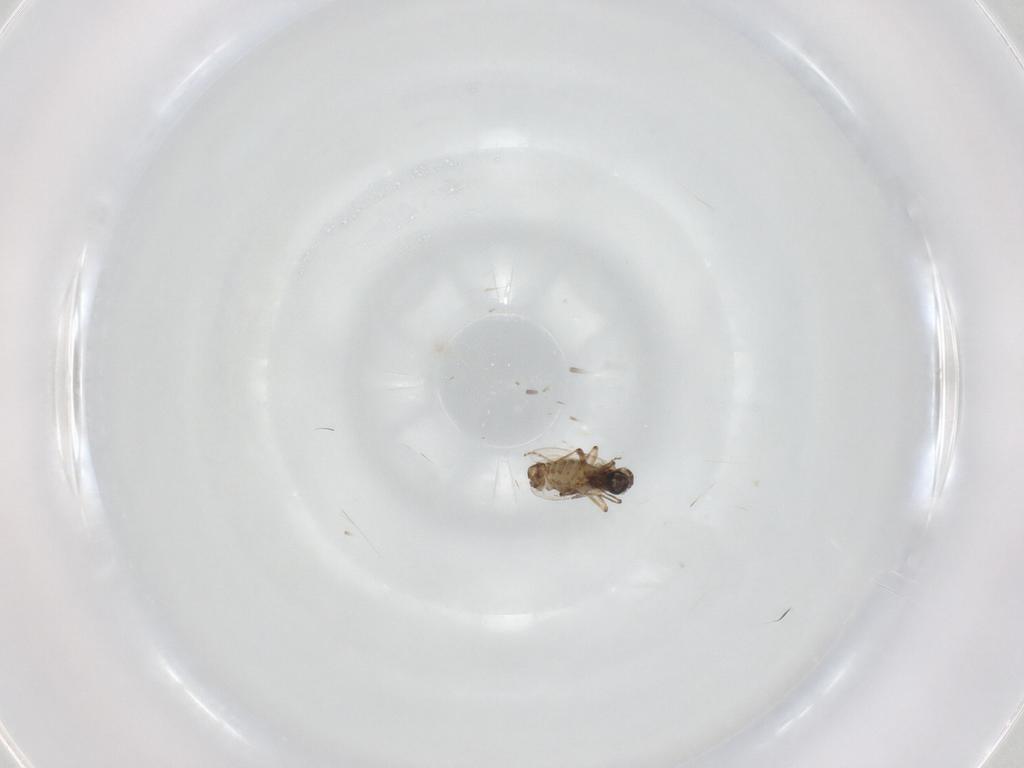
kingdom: Animalia
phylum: Arthropoda
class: Insecta
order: Diptera
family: Ceratopogonidae
